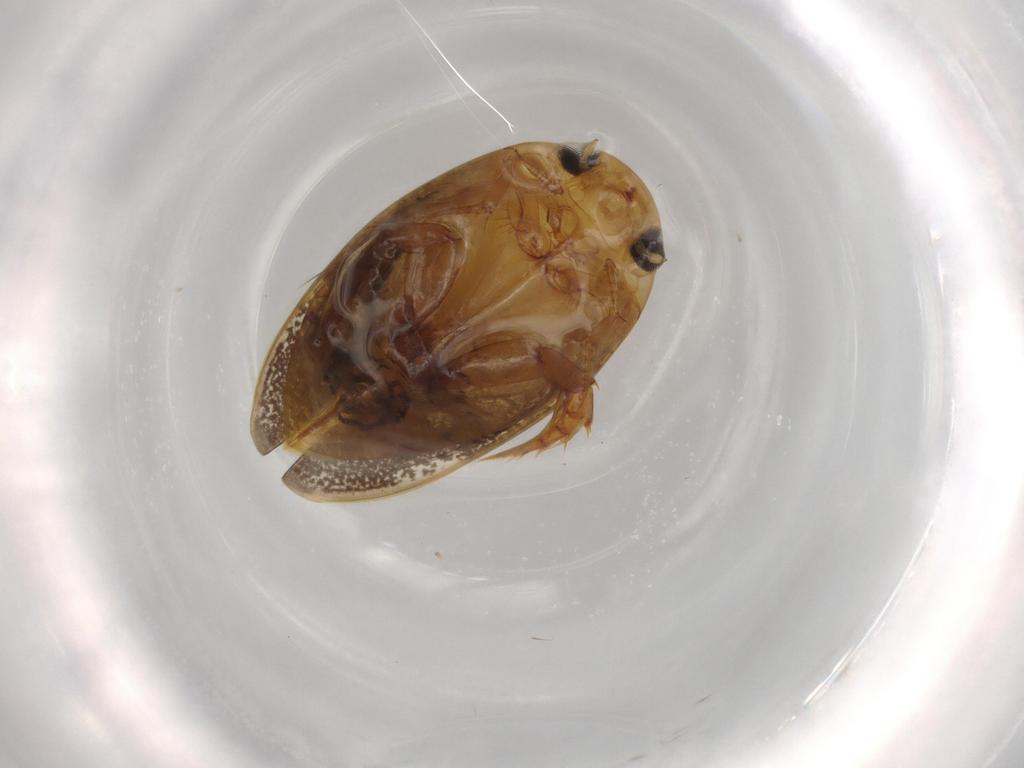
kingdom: Animalia
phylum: Arthropoda
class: Insecta
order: Coleoptera
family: Dytiscidae
